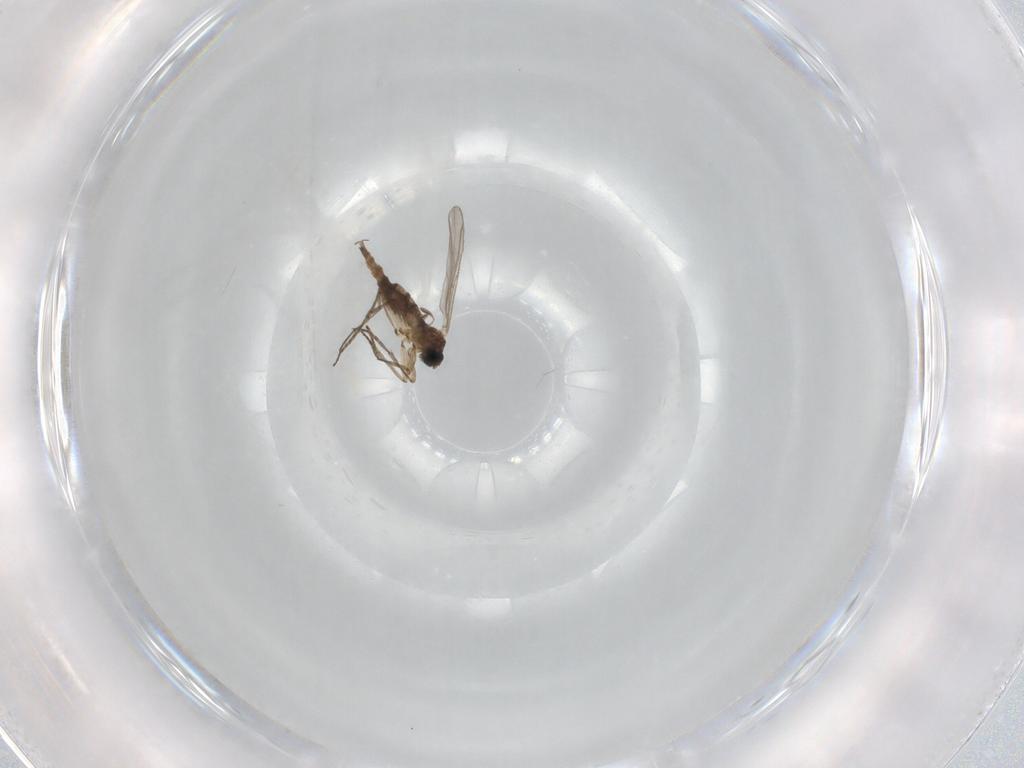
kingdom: Animalia
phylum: Arthropoda
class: Insecta
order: Diptera
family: Sciaridae
